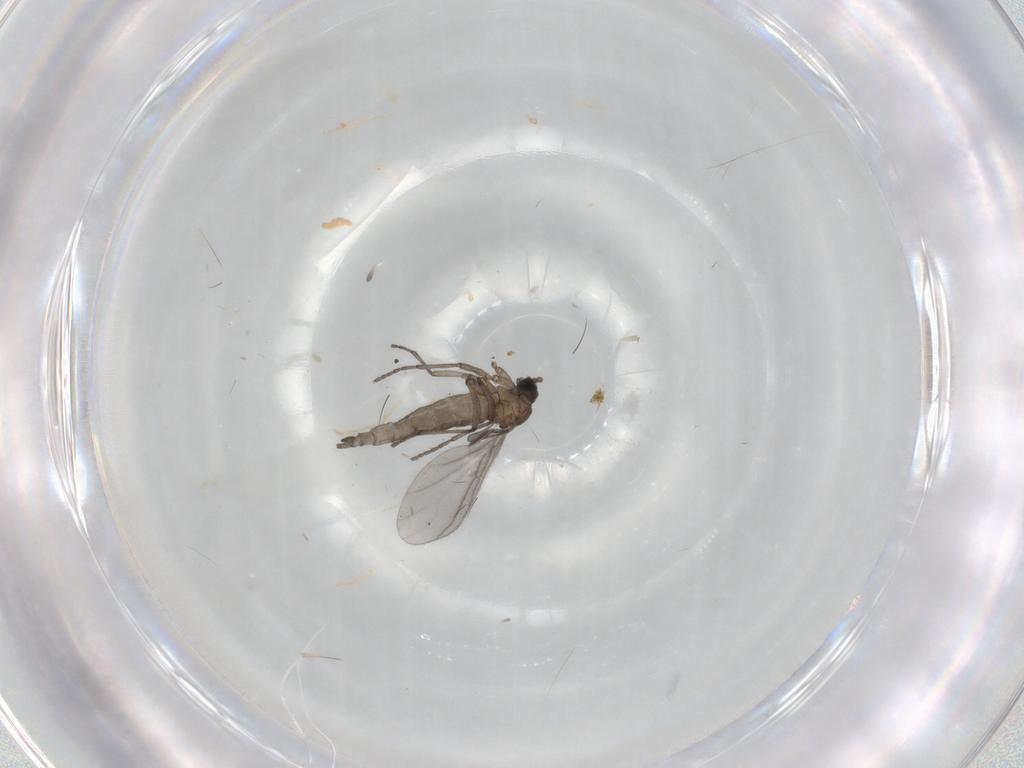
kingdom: Animalia
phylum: Arthropoda
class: Insecta
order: Diptera
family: Sciaridae
